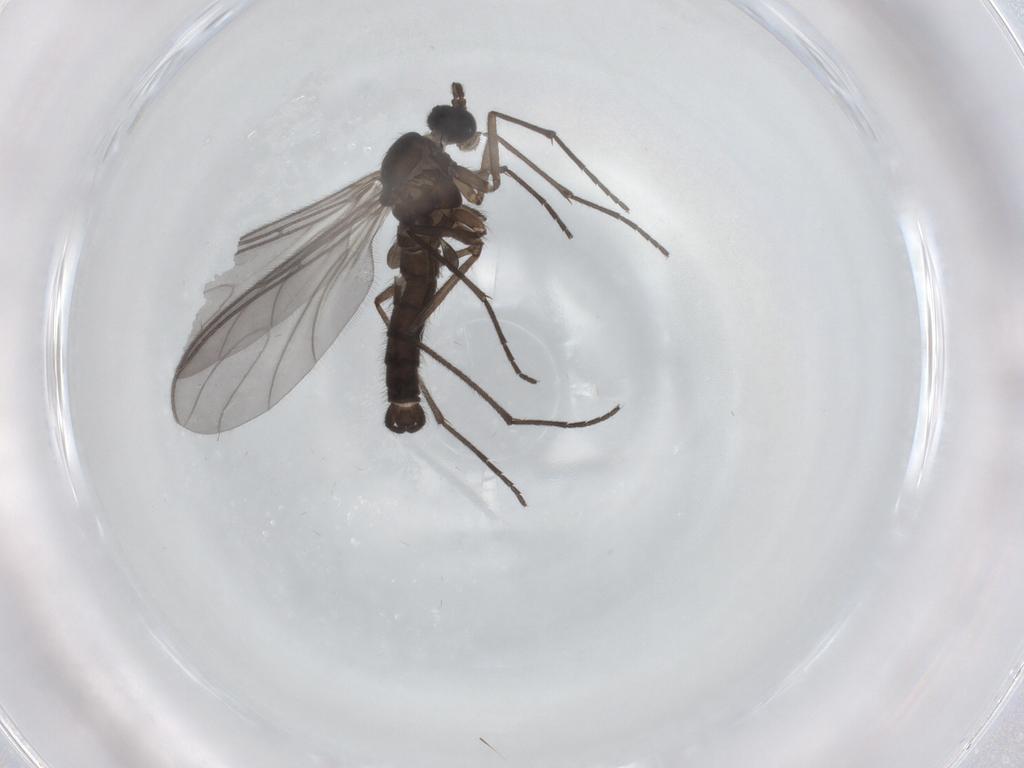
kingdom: Animalia
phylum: Arthropoda
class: Insecta
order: Diptera
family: Sciaridae
